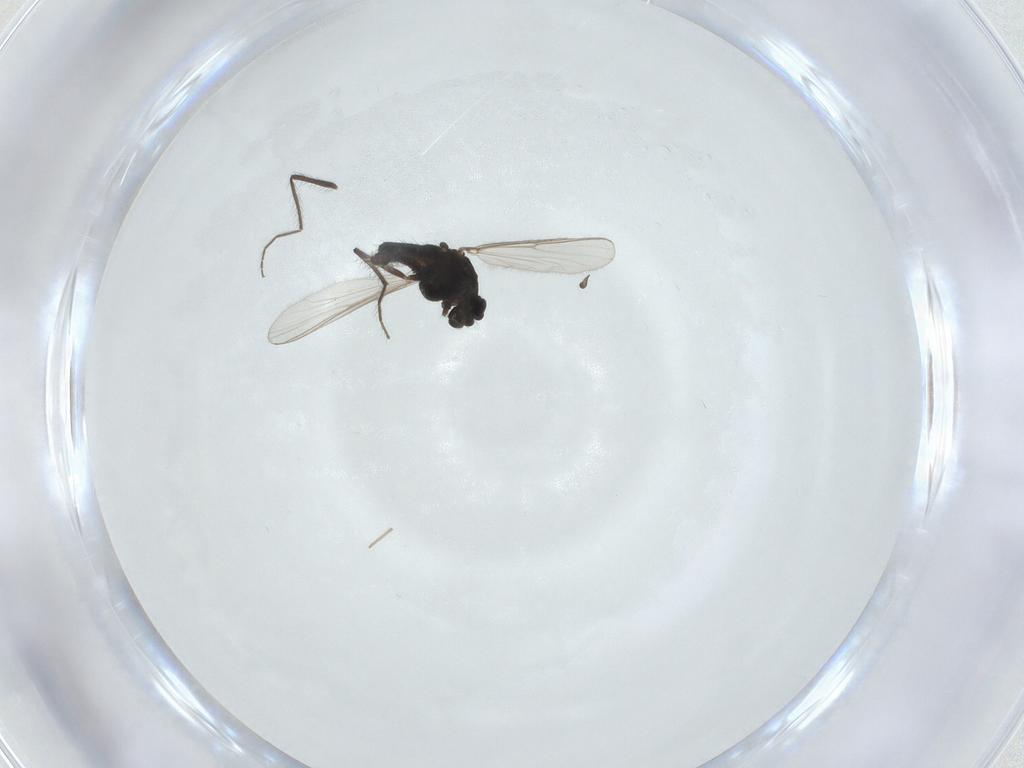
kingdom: Animalia
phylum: Arthropoda
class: Insecta
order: Diptera
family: Chironomidae
